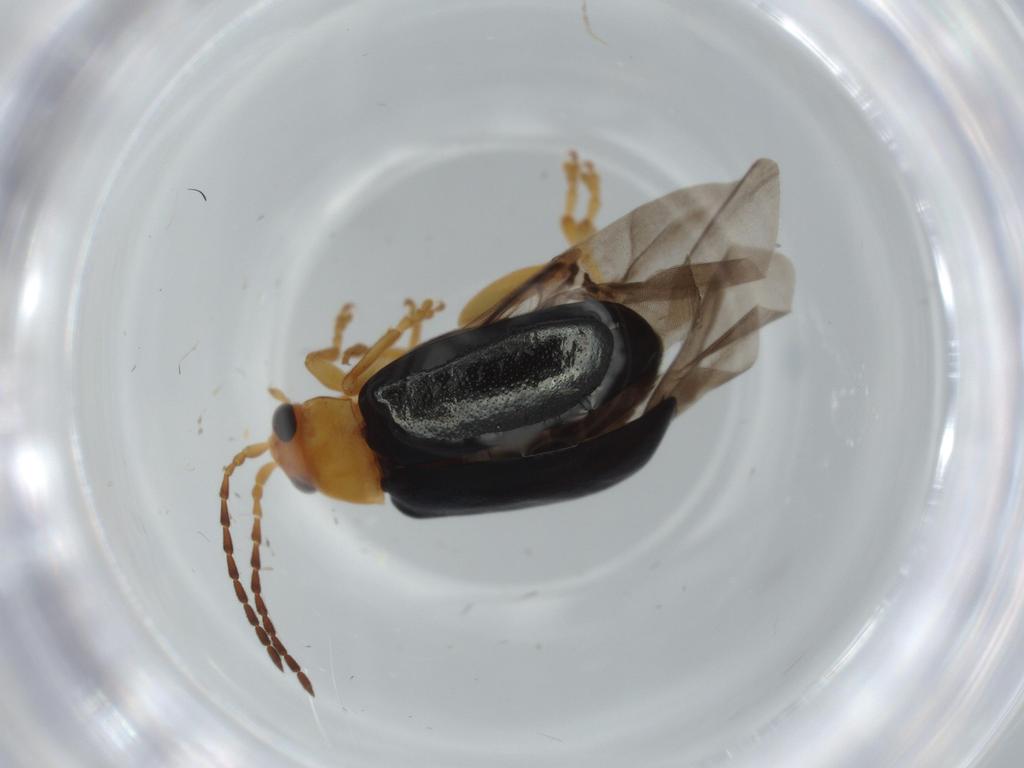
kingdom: Animalia
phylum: Arthropoda
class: Insecta
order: Coleoptera
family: Chrysomelidae
